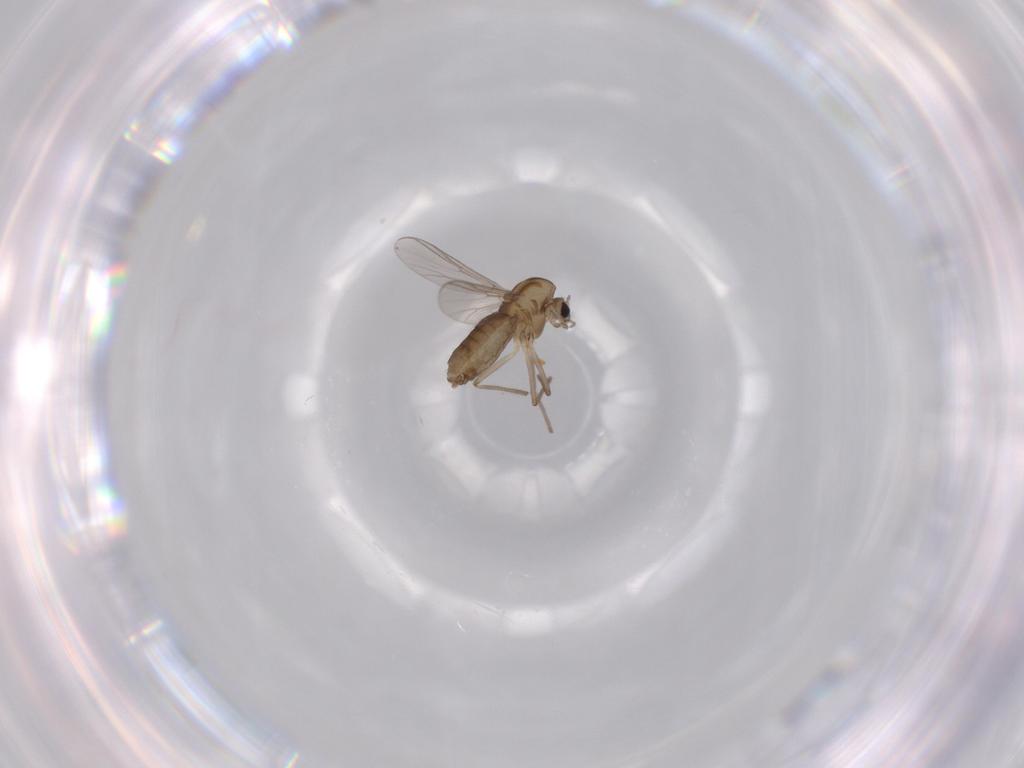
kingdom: Animalia
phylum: Arthropoda
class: Insecta
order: Diptera
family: Chironomidae
